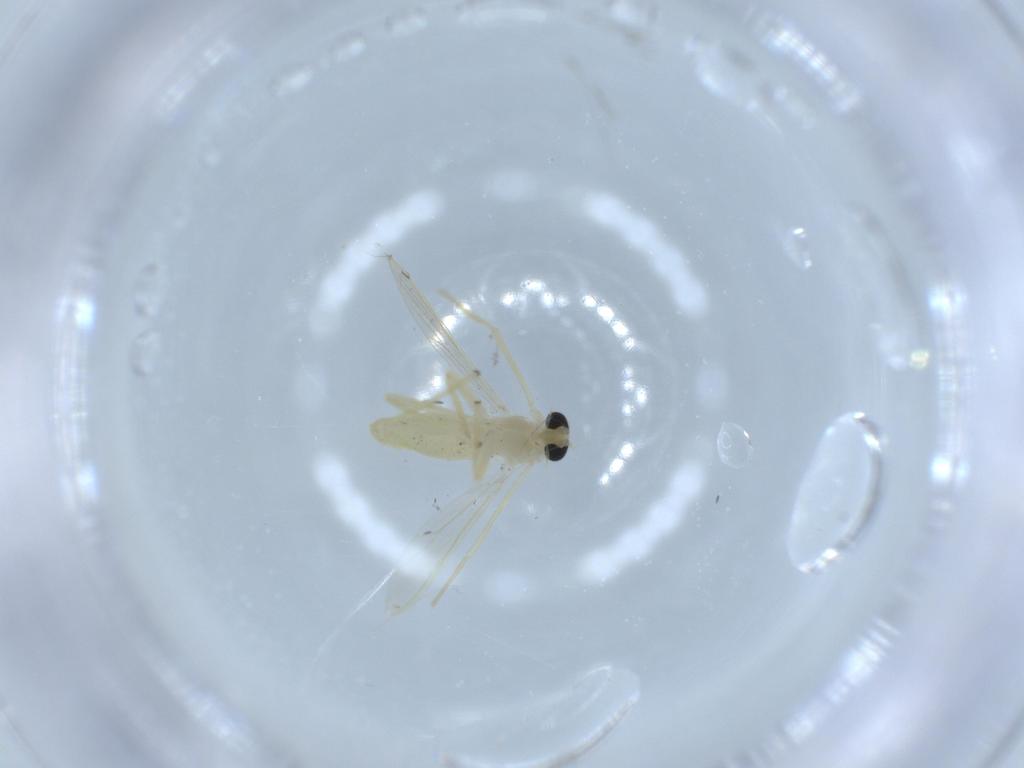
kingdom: Animalia
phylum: Arthropoda
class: Insecta
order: Diptera
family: Chironomidae
